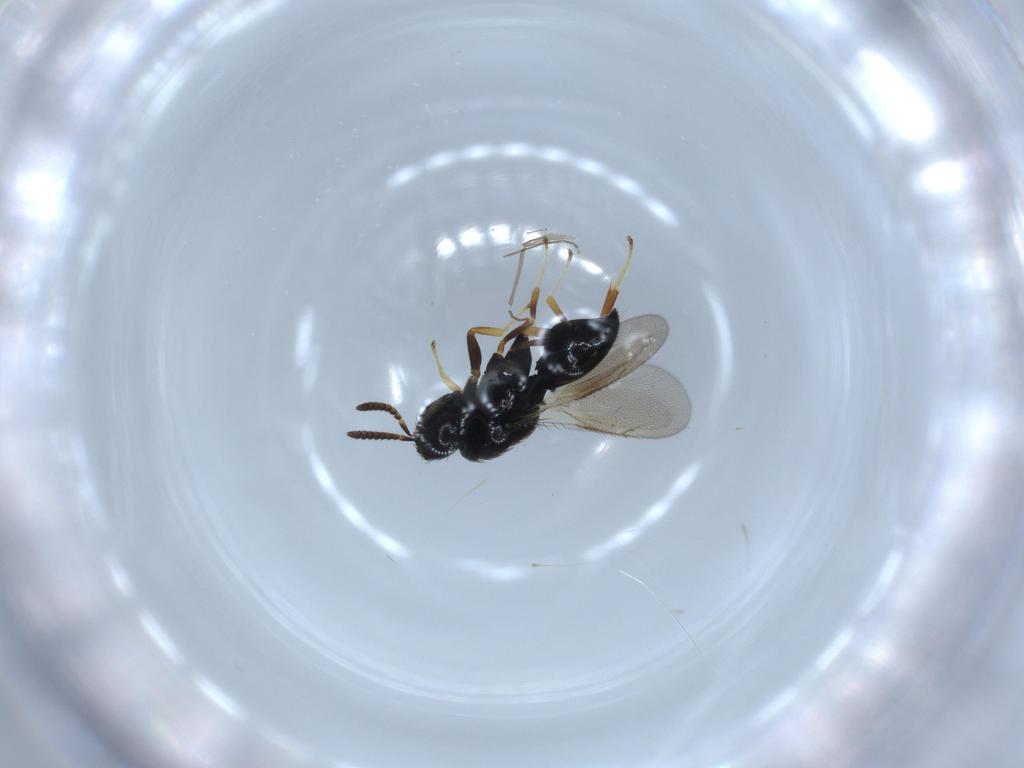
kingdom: Animalia
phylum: Arthropoda
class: Insecta
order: Hymenoptera
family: Pteromalidae
